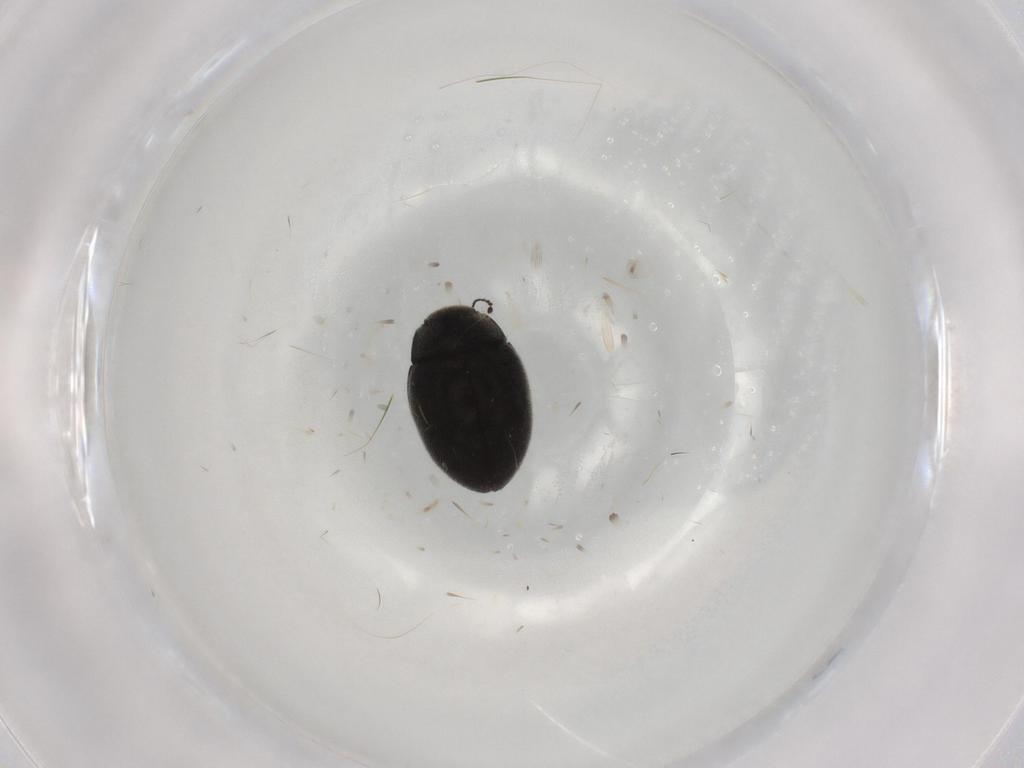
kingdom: Animalia
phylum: Arthropoda
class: Insecta
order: Coleoptera
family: Limnichidae
